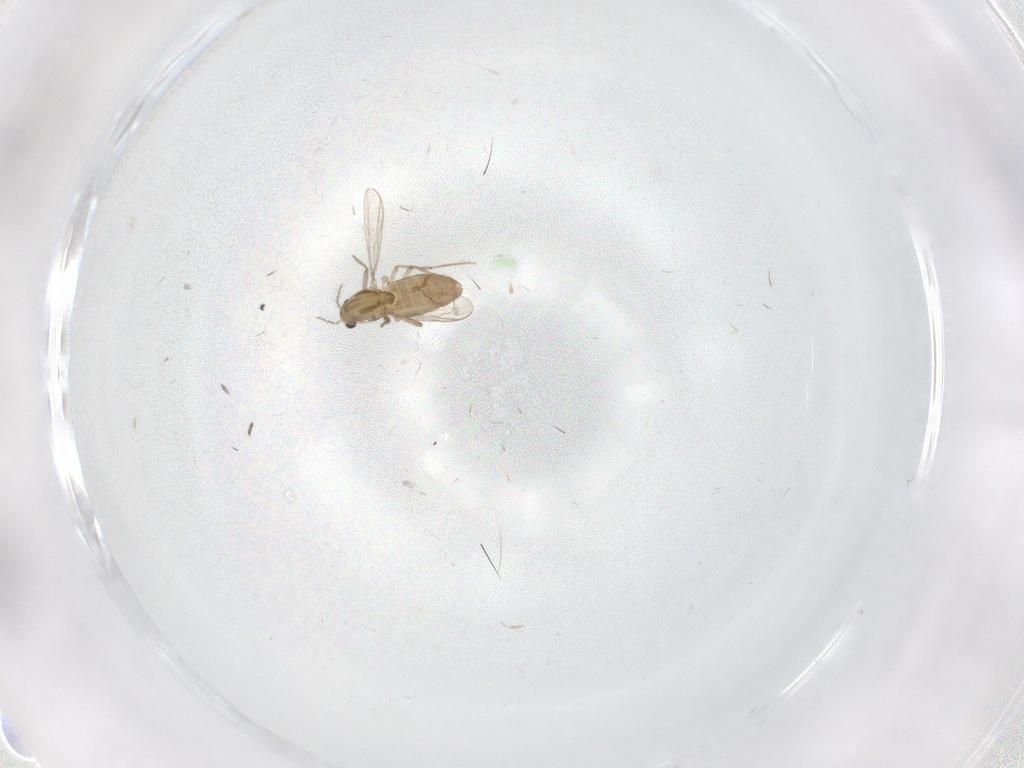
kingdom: Animalia
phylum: Arthropoda
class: Insecta
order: Diptera
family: Chironomidae
